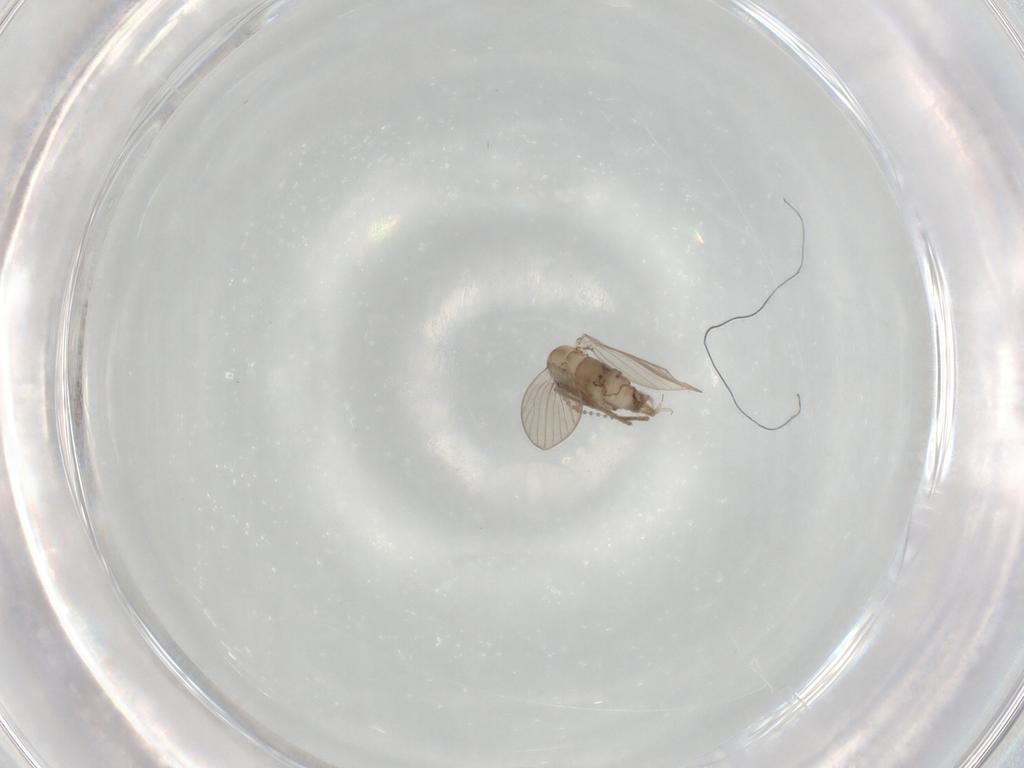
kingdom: Animalia
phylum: Arthropoda
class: Insecta
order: Diptera
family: Psychodidae
